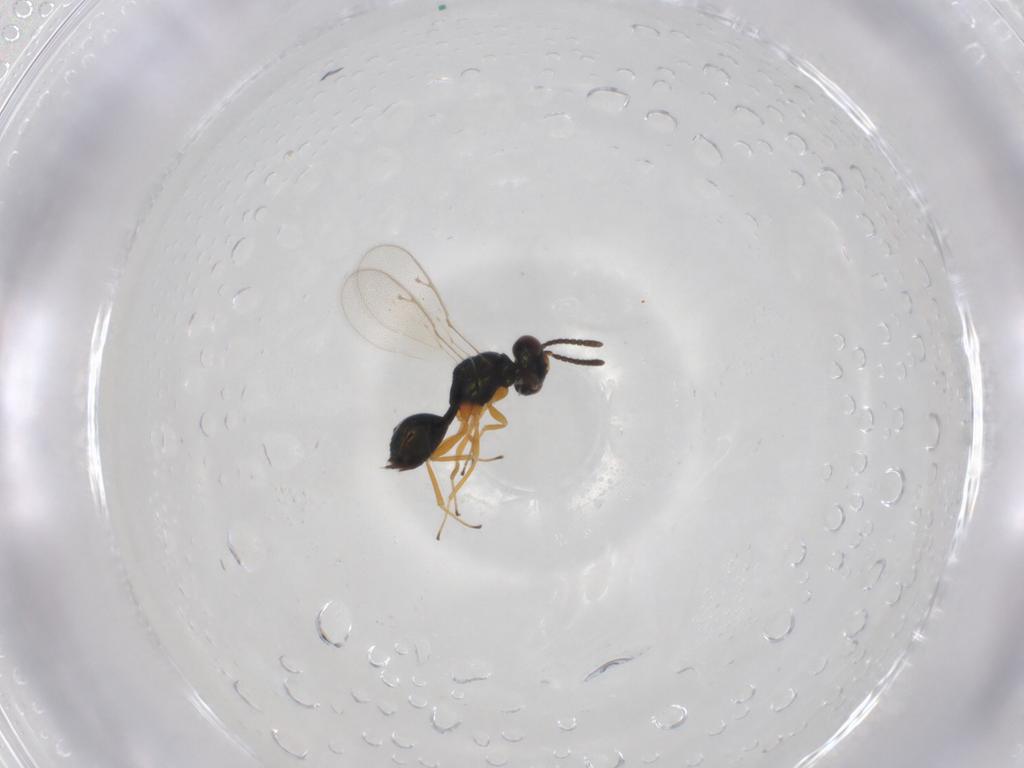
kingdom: Animalia
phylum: Arthropoda
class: Insecta
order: Hymenoptera
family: Pteromalidae
